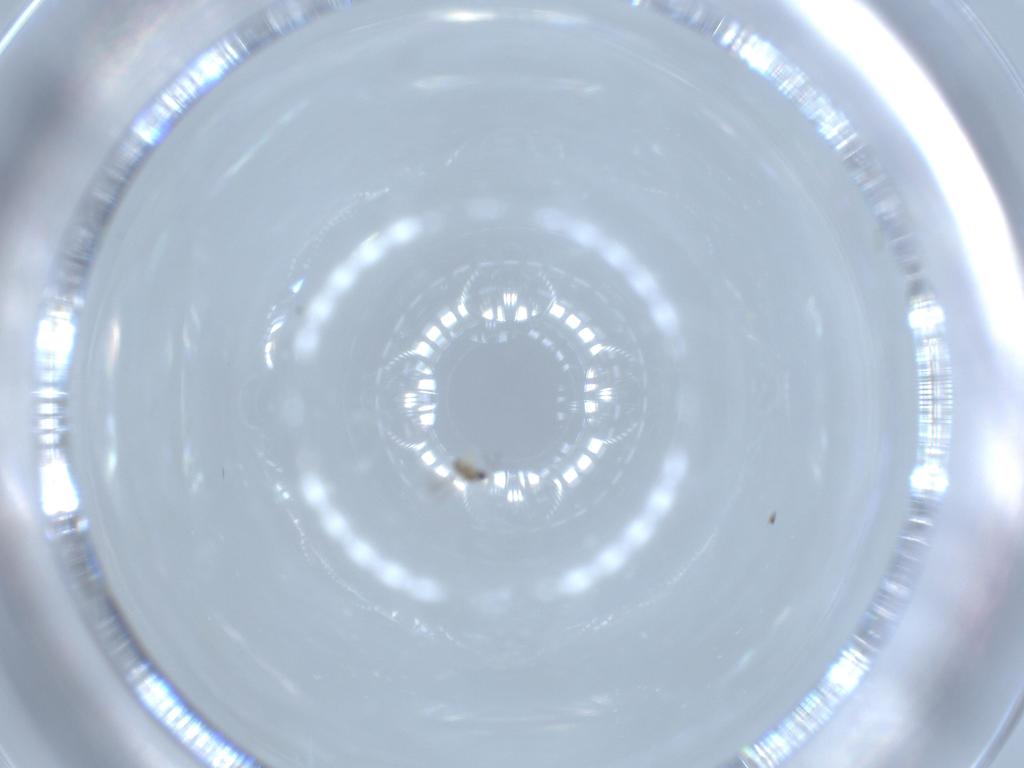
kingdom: Animalia
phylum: Arthropoda
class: Insecta
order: Hymenoptera
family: Mymaridae
